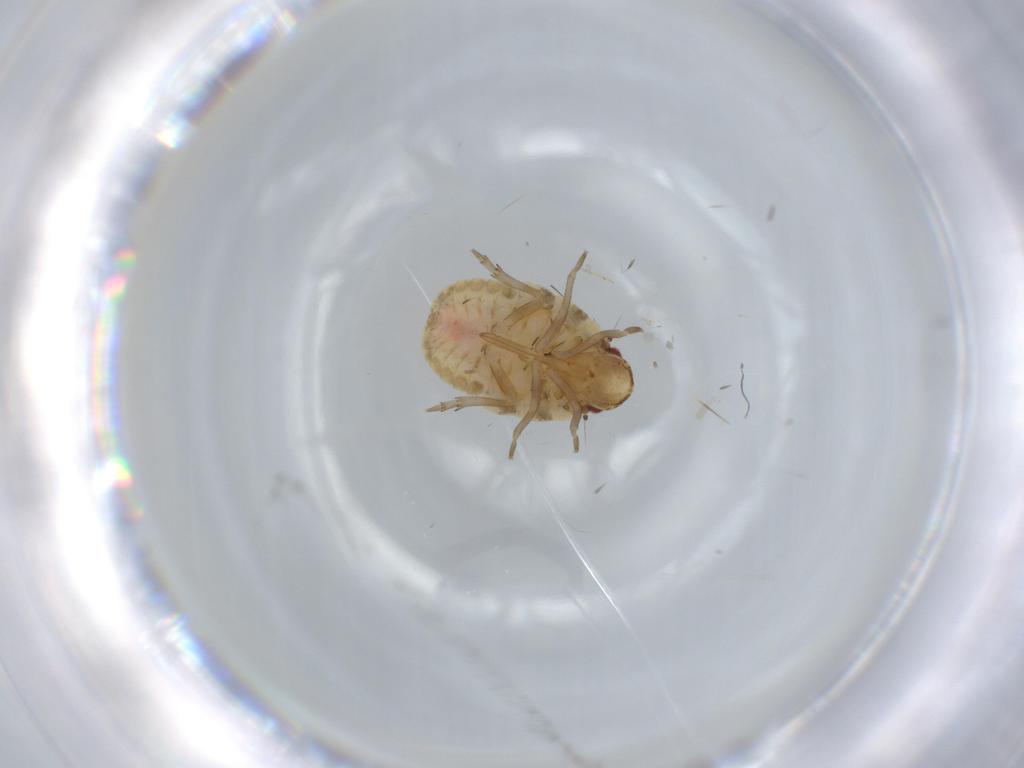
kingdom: Animalia
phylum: Arthropoda
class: Insecta
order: Hemiptera
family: Flatidae
